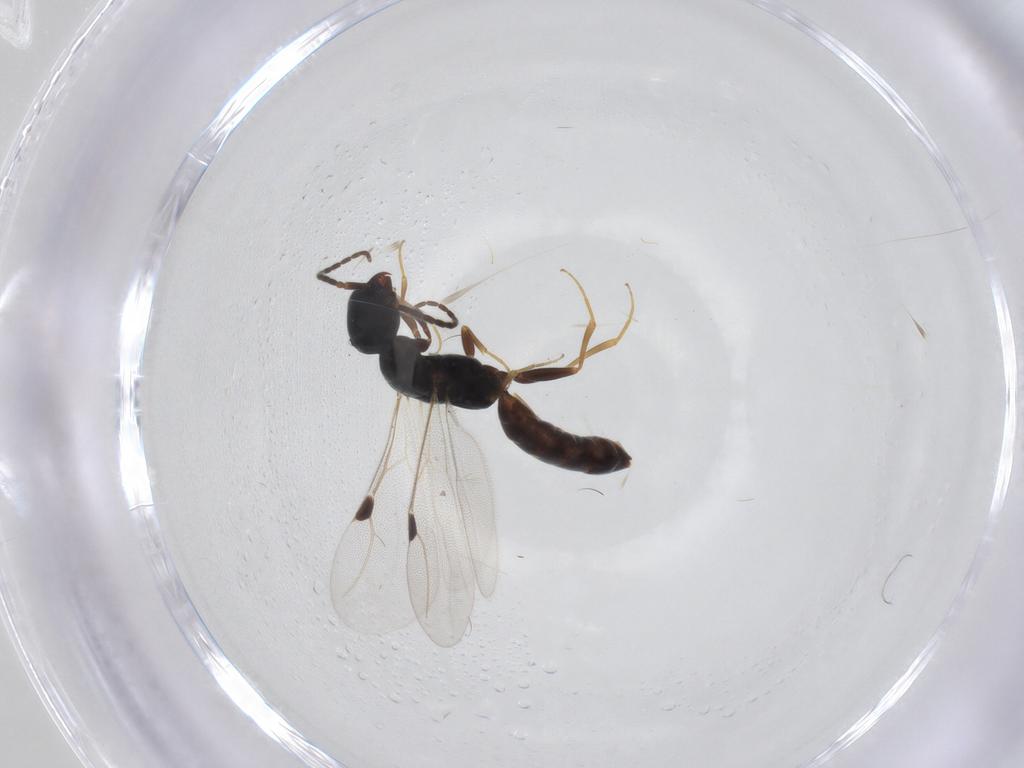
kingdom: Animalia
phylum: Arthropoda
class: Insecta
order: Hymenoptera
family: Bethylidae
